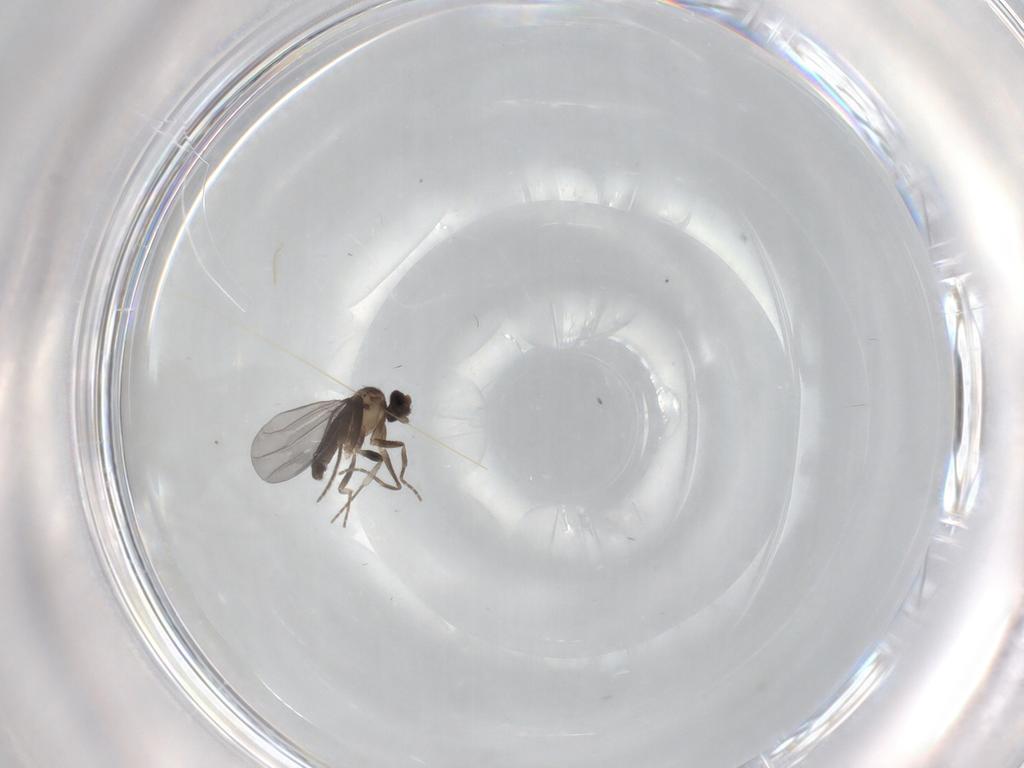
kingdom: Animalia
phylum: Arthropoda
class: Insecta
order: Diptera
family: Phoridae
